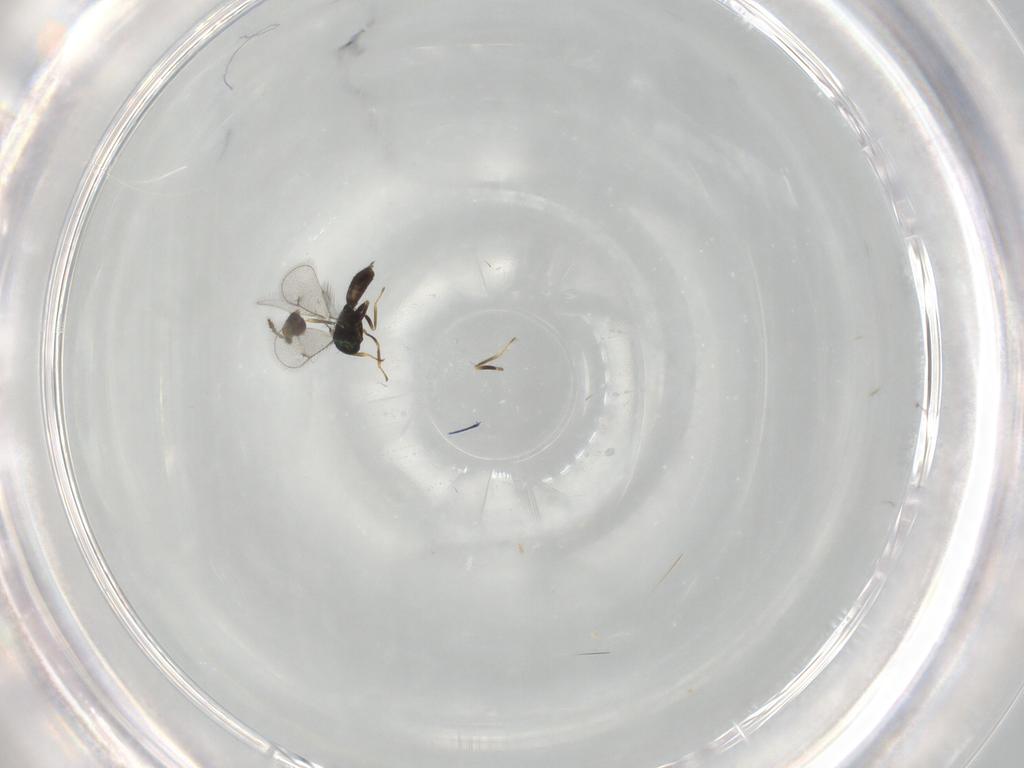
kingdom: Animalia
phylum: Arthropoda
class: Insecta
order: Hymenoptera
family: Eulophidae
